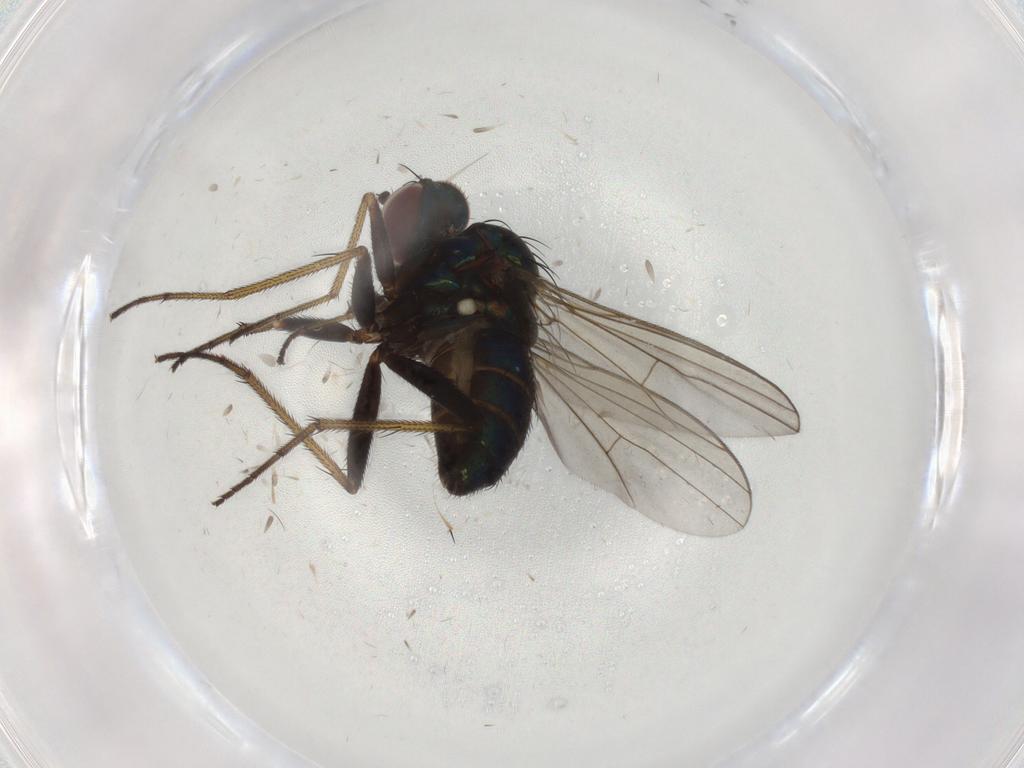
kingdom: Animalia
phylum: Arthropoda
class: Insecta
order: Diptera
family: Dolichopodidae
